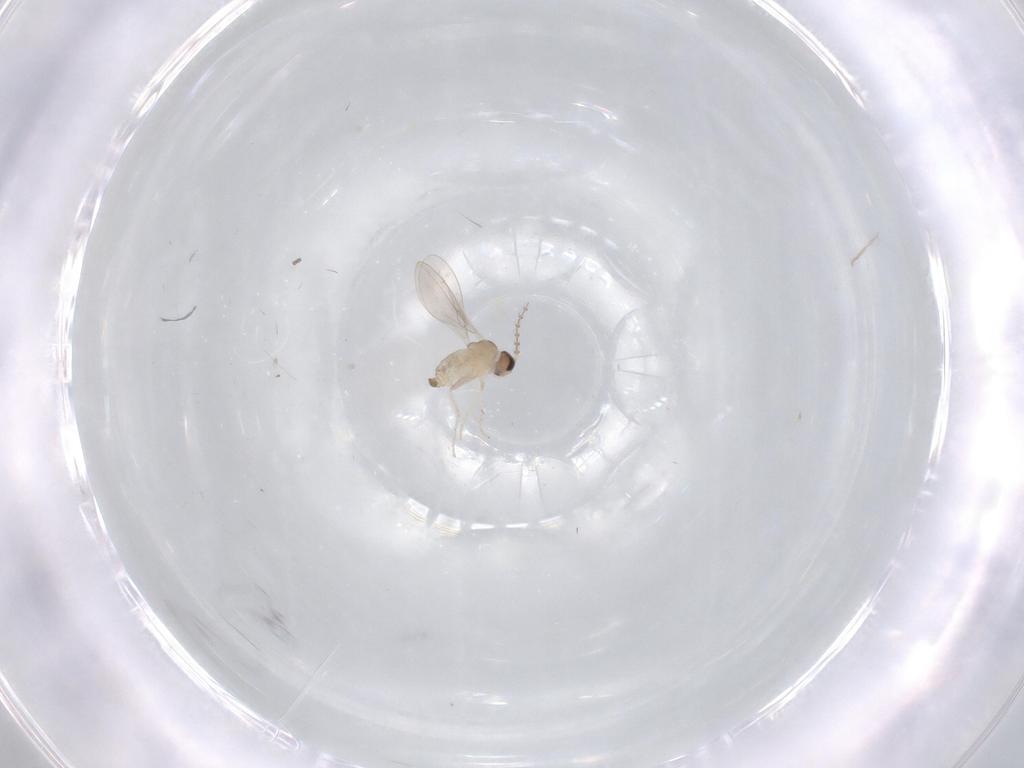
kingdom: Animalia
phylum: Arthropoda
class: Insecta
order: Diptera
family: Cecidomyiidae
